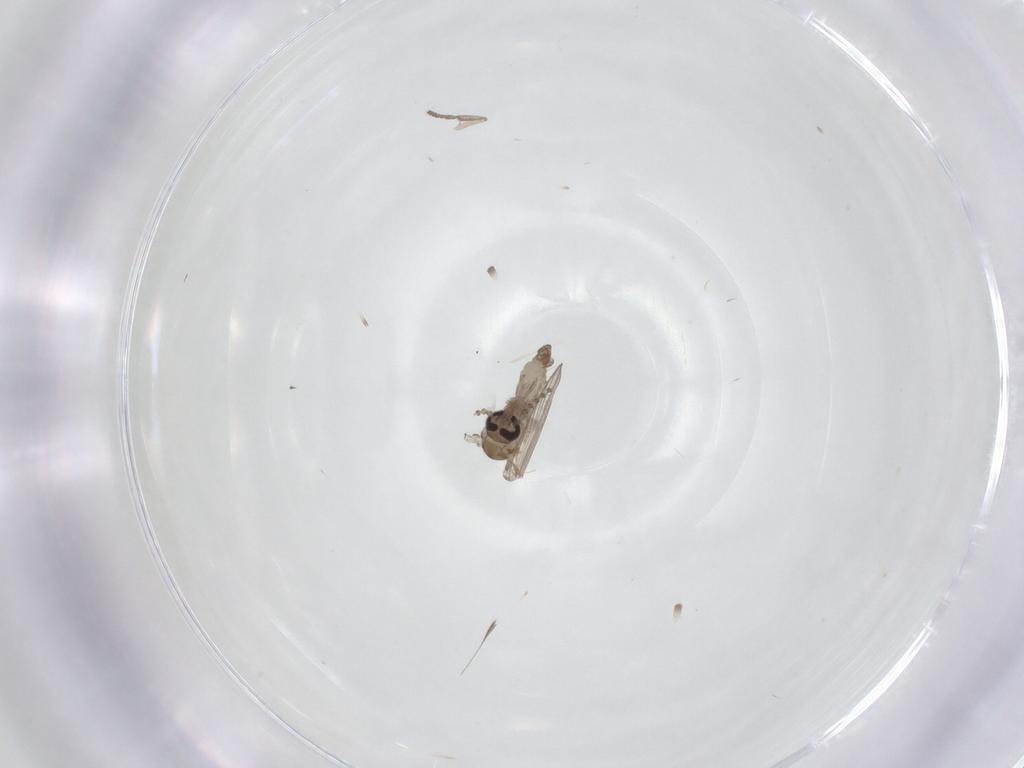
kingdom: Animalia
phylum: Arthropoda
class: Insecta
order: Diptera
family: Psychodidae
